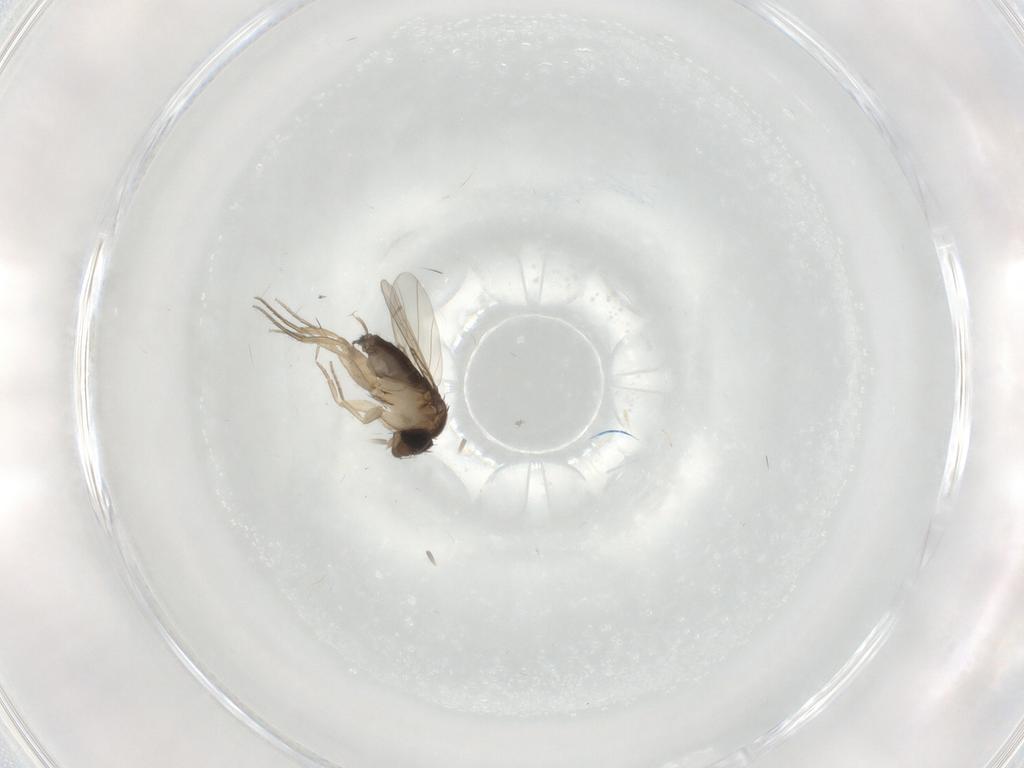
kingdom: Animalia
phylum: Arthropoda
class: Insecta
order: Diptera
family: Phoridae
